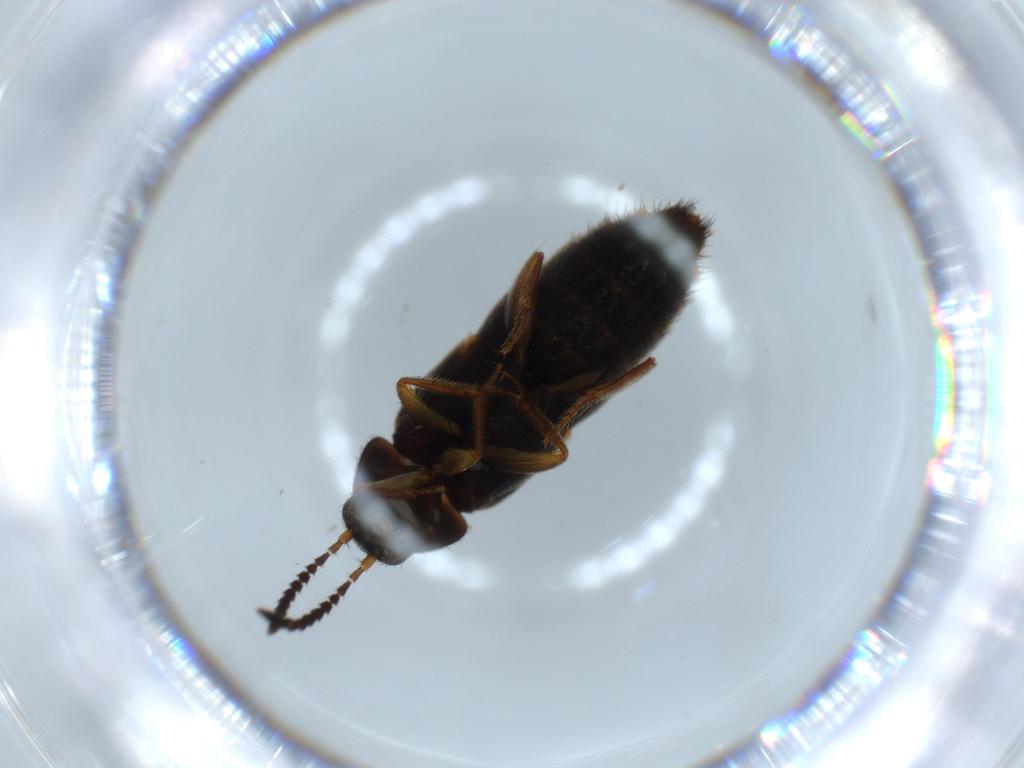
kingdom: Animalia
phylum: Arthropoda
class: Insecta
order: Coleoptera
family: Staphylinidae
